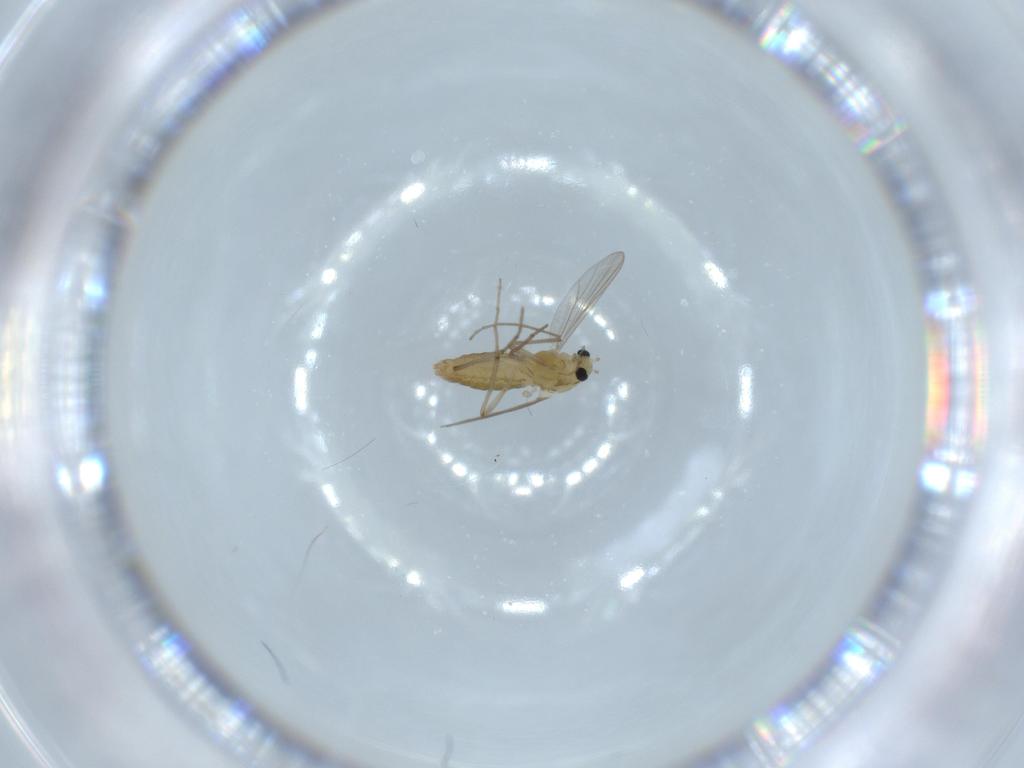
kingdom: Animalia
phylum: Arthropoda
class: Insecta
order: Diptera
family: Chironomidae
